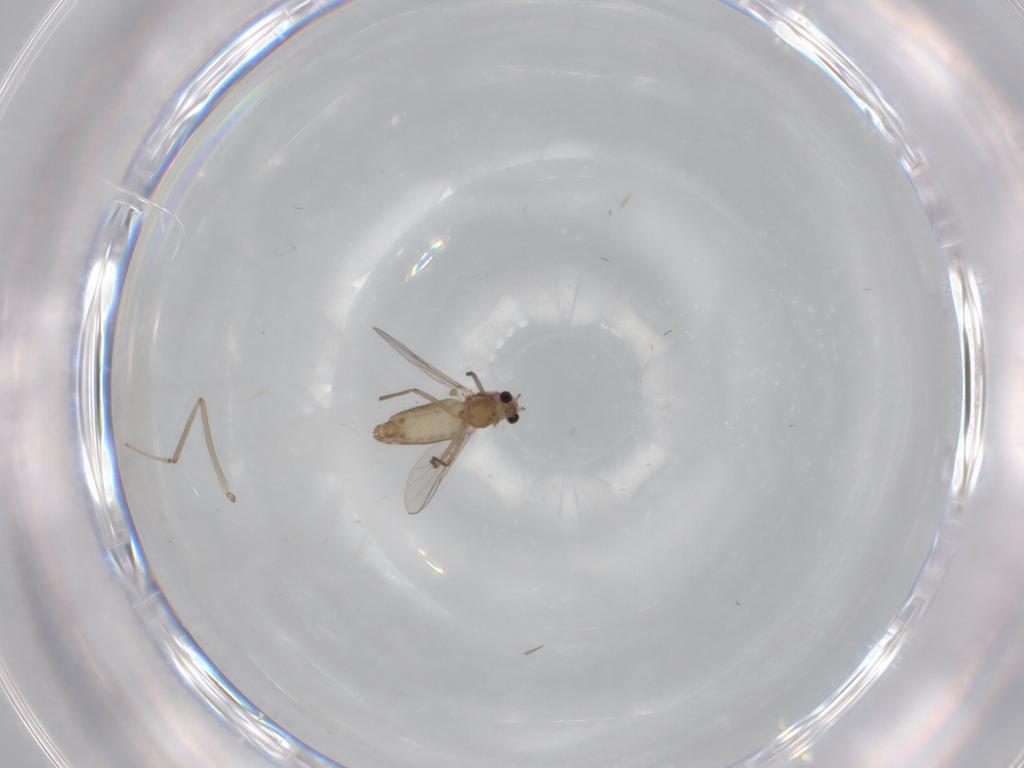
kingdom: Animalia
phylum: Arthropoda
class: Insecta
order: Diptera
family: Chironomidae
